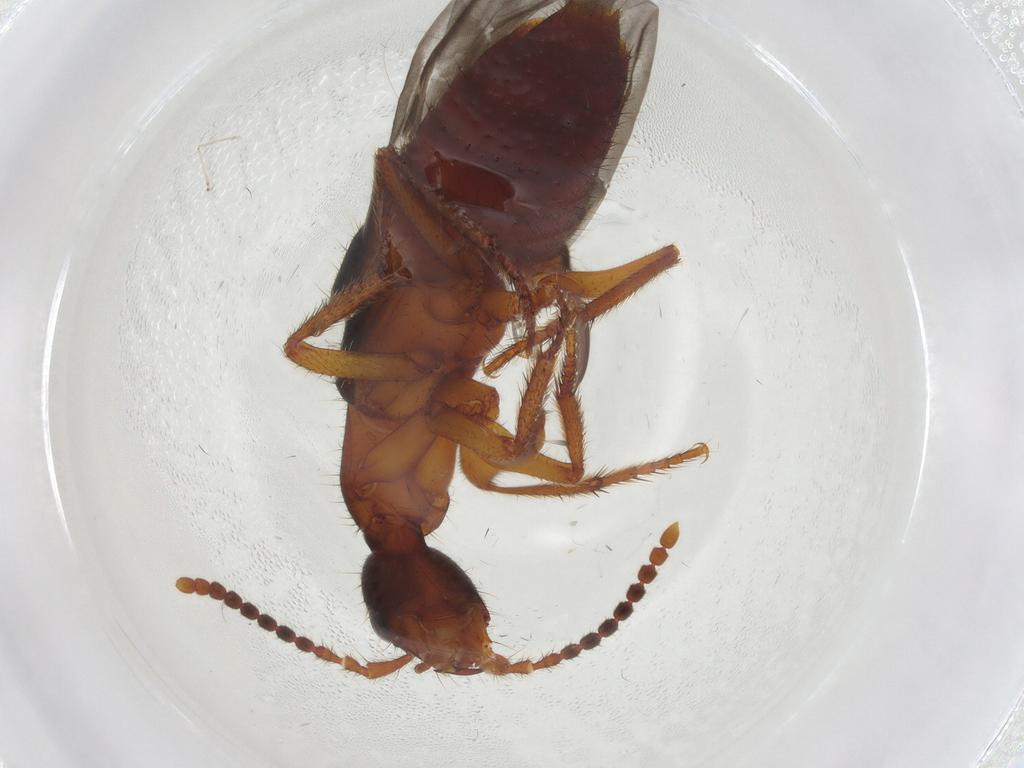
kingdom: Animalia
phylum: Arthropoda
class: Insecta
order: Coleoptera
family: Staphylinidae
